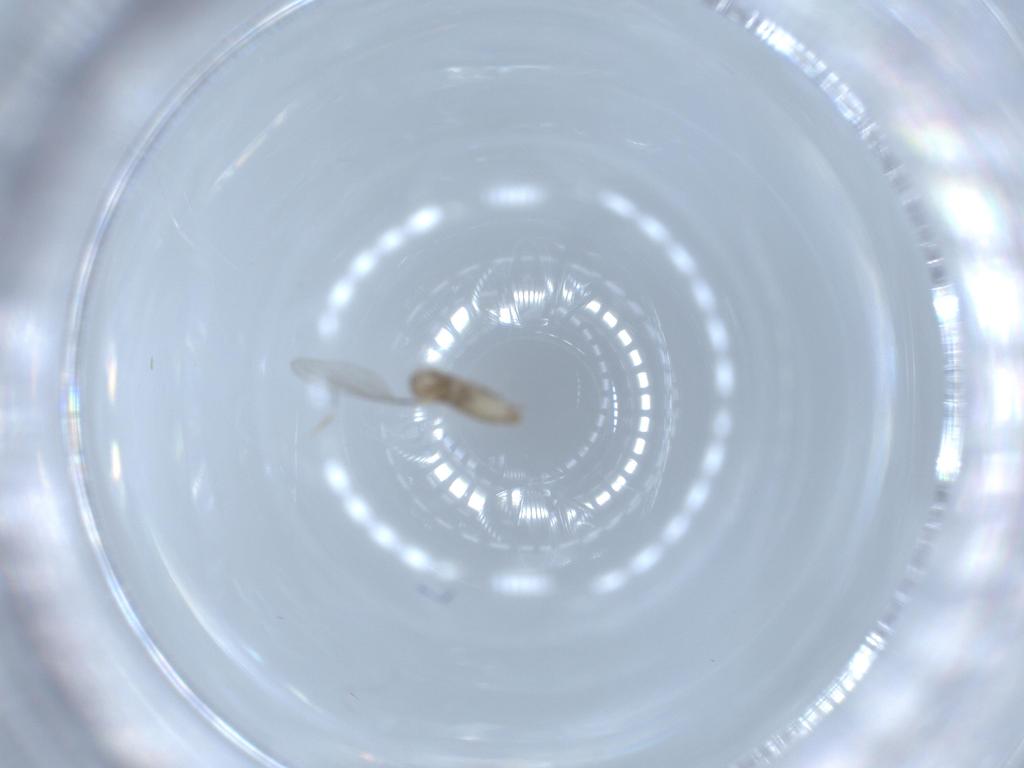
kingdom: Animalia
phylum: Arthropoda
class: Insecta
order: Diptera
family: Cecidomyiidae
